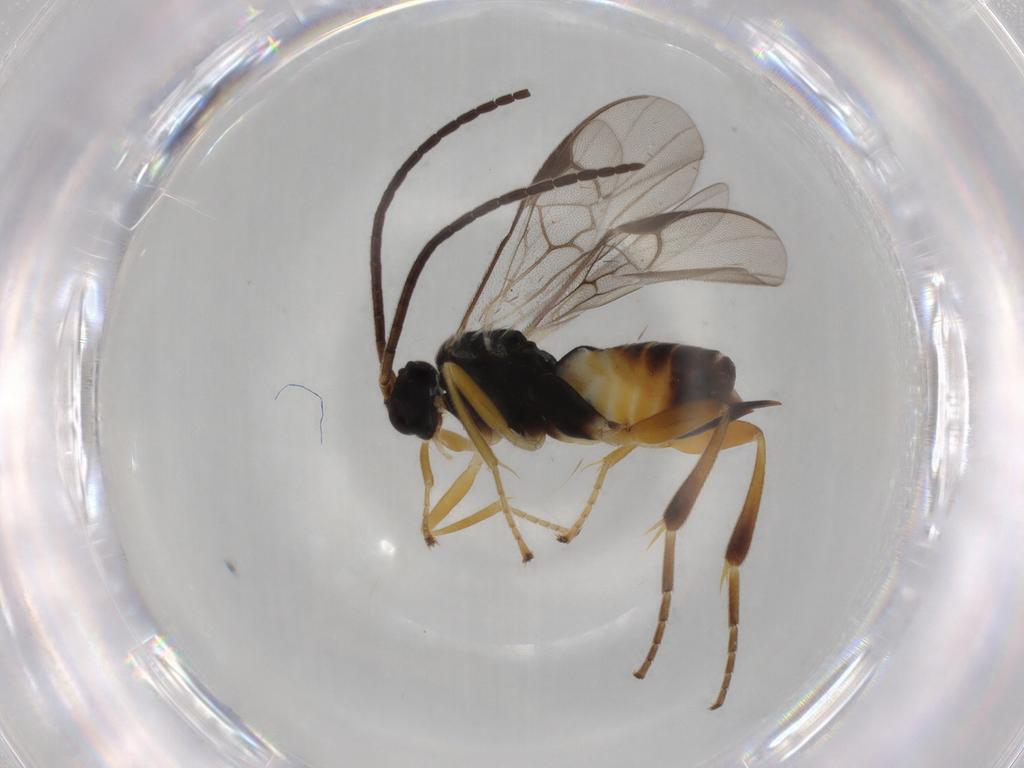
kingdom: Animalia
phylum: Arthropoda
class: Insecta
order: Hymenoptera
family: Braconidae
